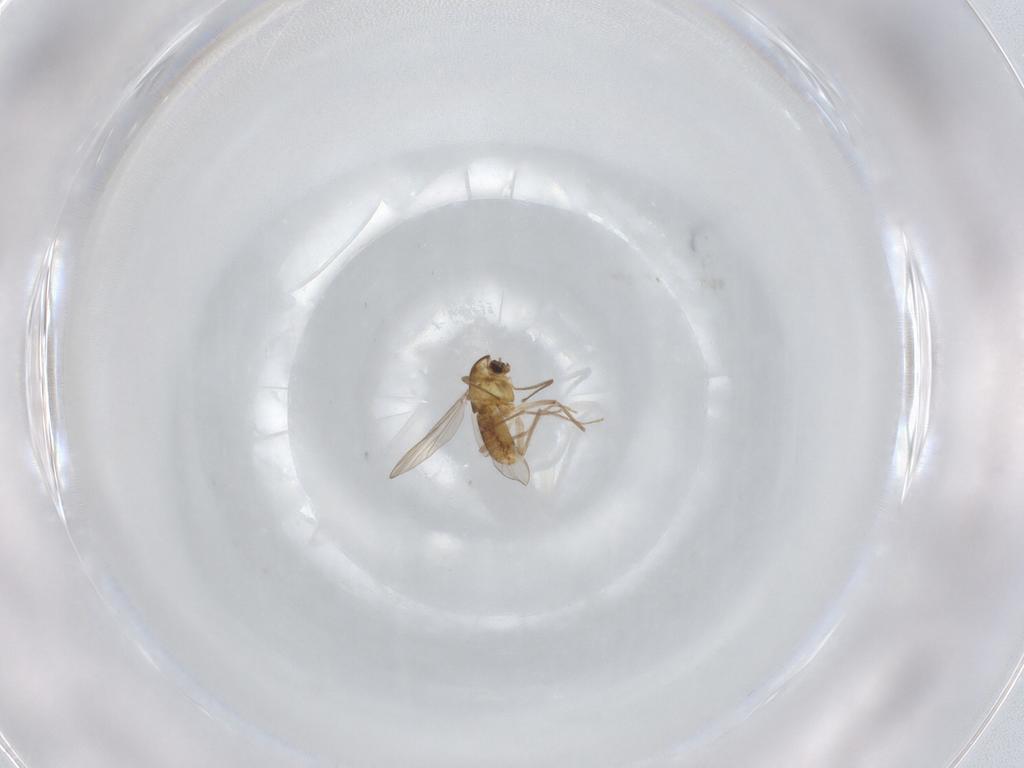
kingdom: Animalia
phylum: Arthropoda
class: Insecta
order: Diptera
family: Chironomidae
